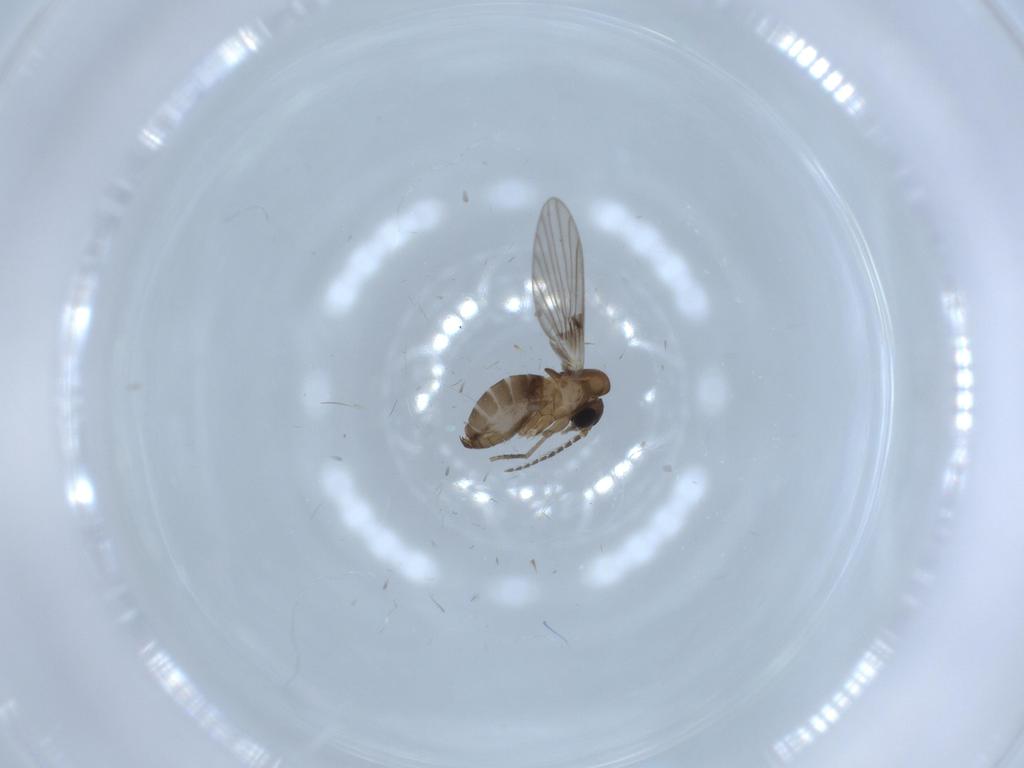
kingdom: Animalia
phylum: Arthropoda
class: Insecta
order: Diptera
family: Psychodidae
